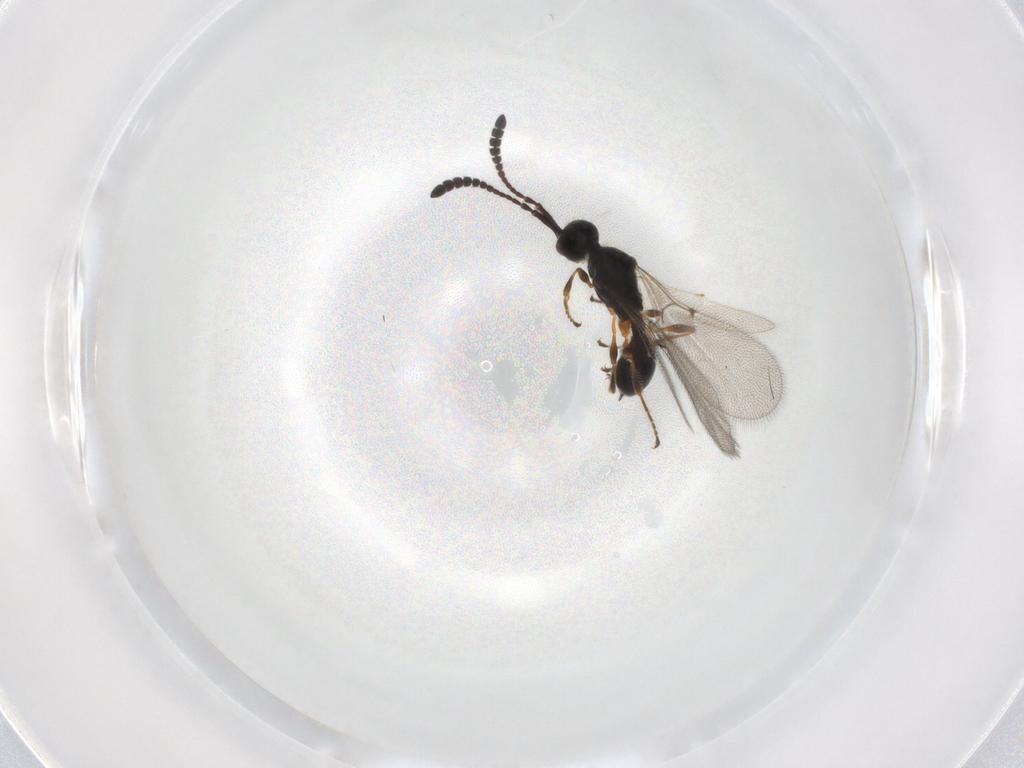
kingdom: Animalia
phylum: Arthropoda
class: Insecta
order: Hymenoptera
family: Diapriidae
